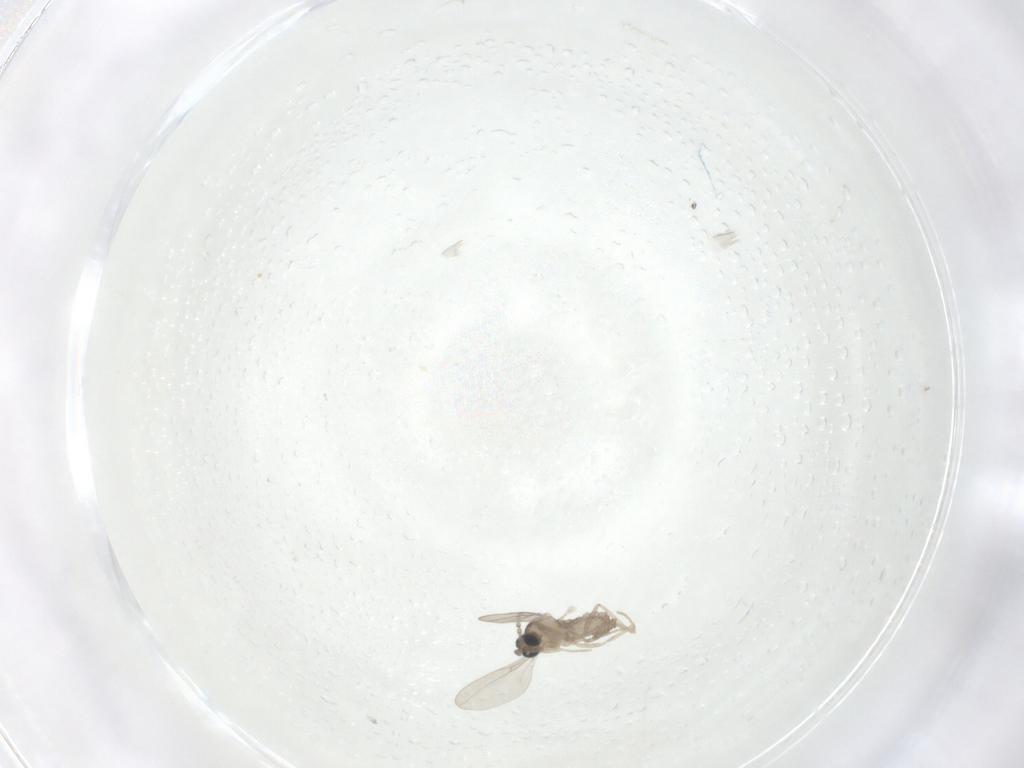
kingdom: Animalia
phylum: Arthropoda
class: Insecta
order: Diptera
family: Cecidomyiidae
